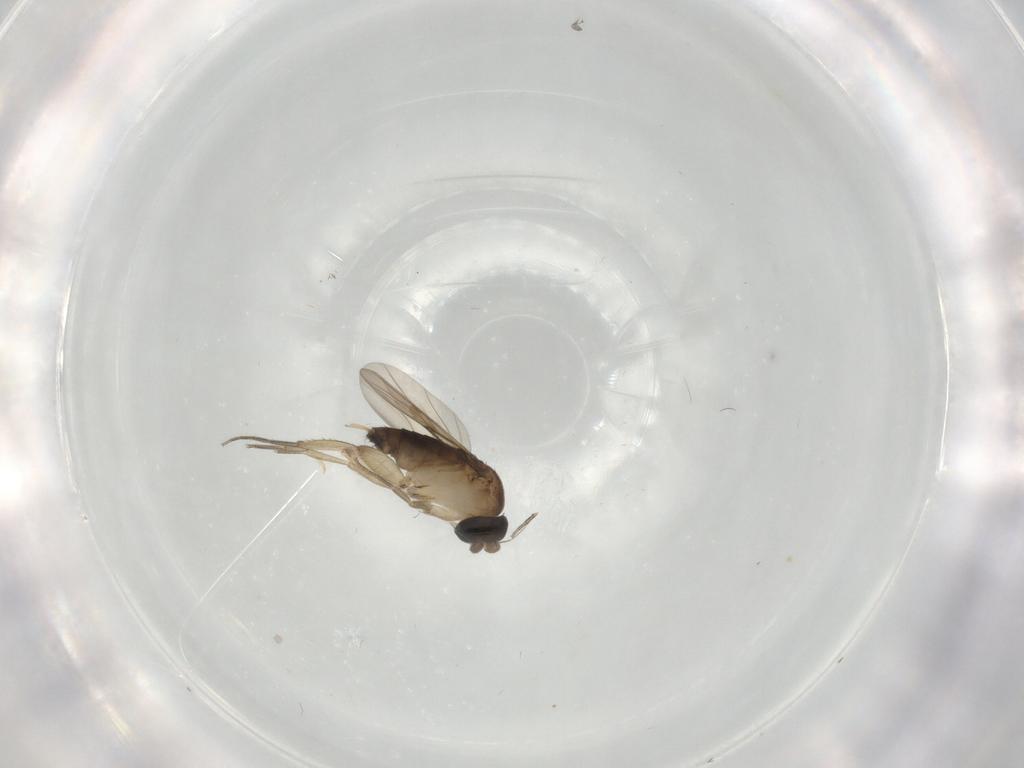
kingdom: Animalia
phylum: Arthropoda
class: Insecta
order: Diptera
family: Phoridae
